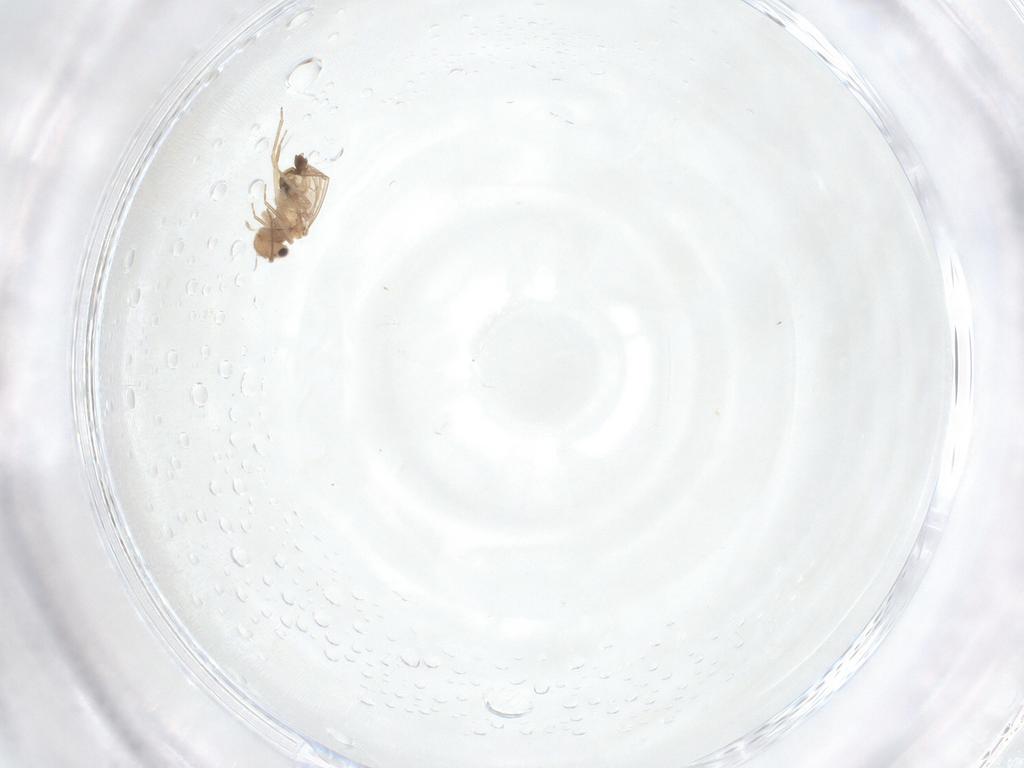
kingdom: Animalia
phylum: Arthropoda
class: Insecta
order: Psocodea
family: Ectopsocidae
